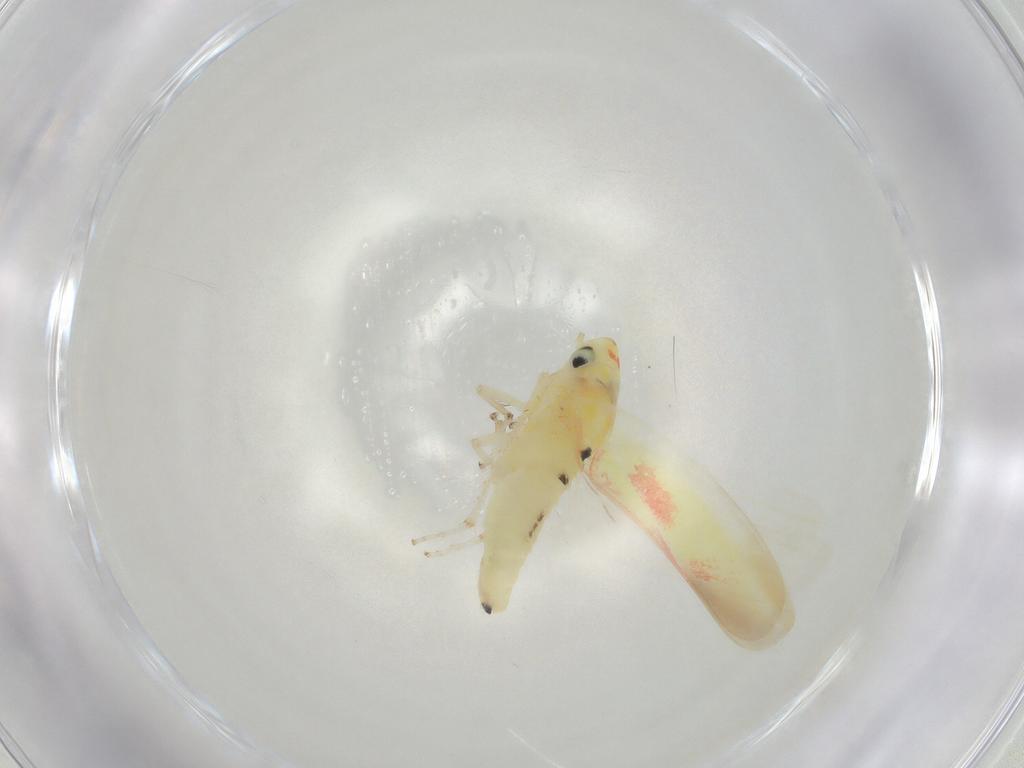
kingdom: Animalia
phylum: Arthropoda
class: Insecta
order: Hemiptera
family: Cicadellidae
